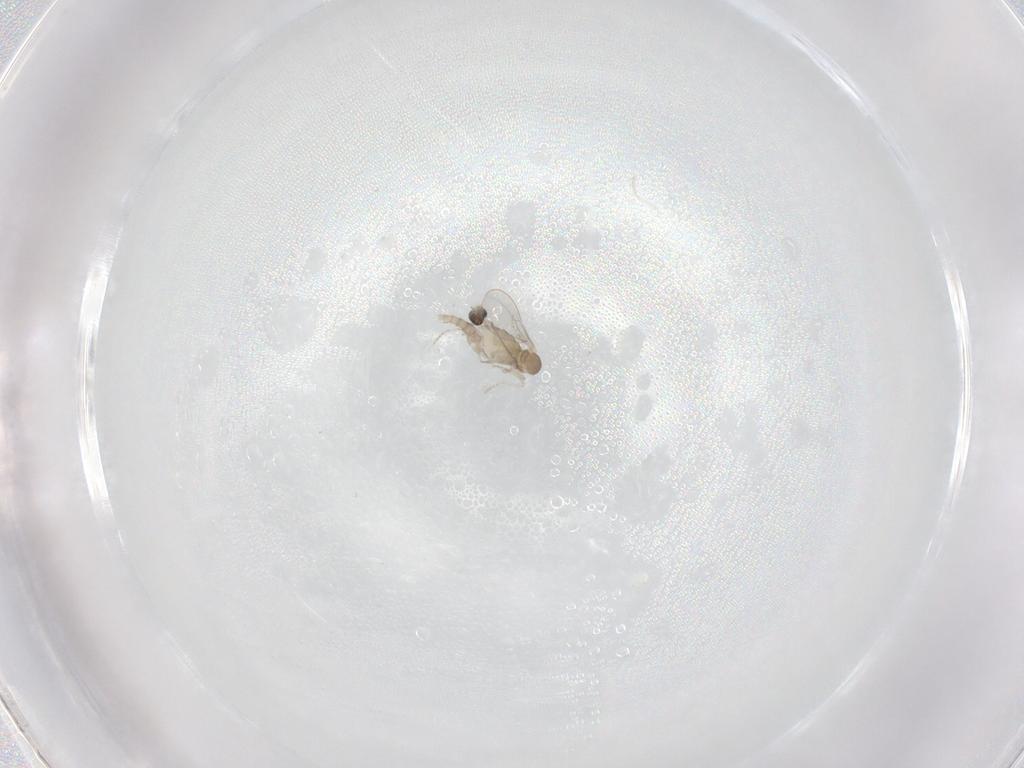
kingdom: Animalia
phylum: Arthropoda
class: Insecta
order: Diptera
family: Cecidomyiidae
